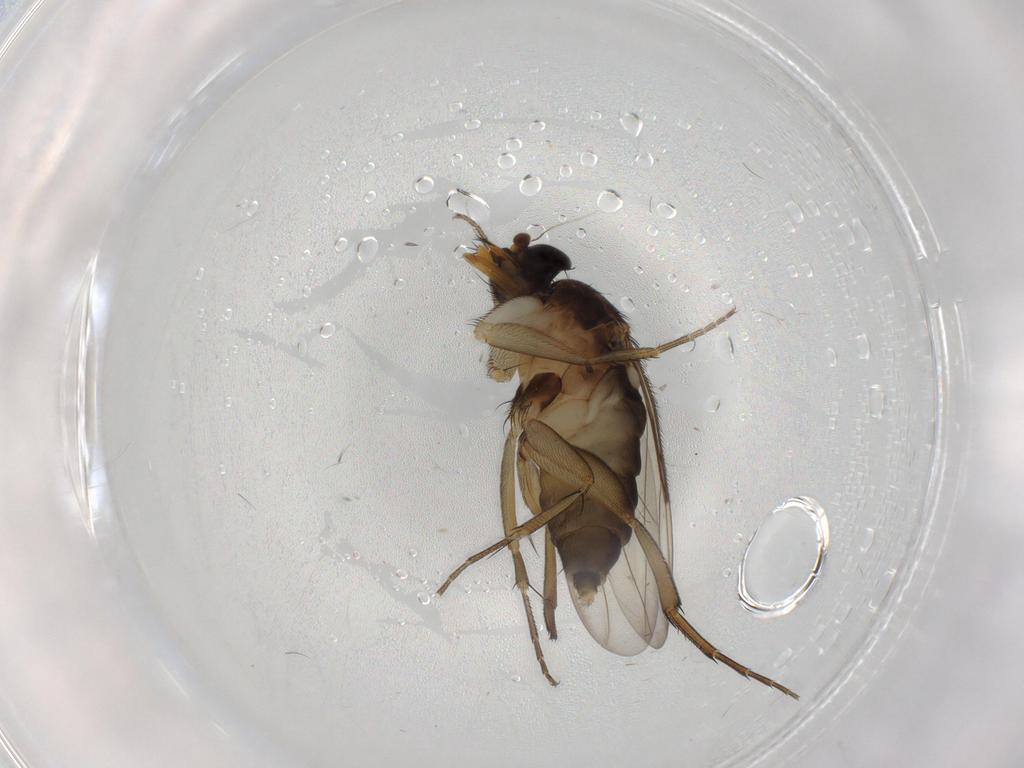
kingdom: Animalia
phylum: Arthropoda
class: Insecta
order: Diptera
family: Phoridae
